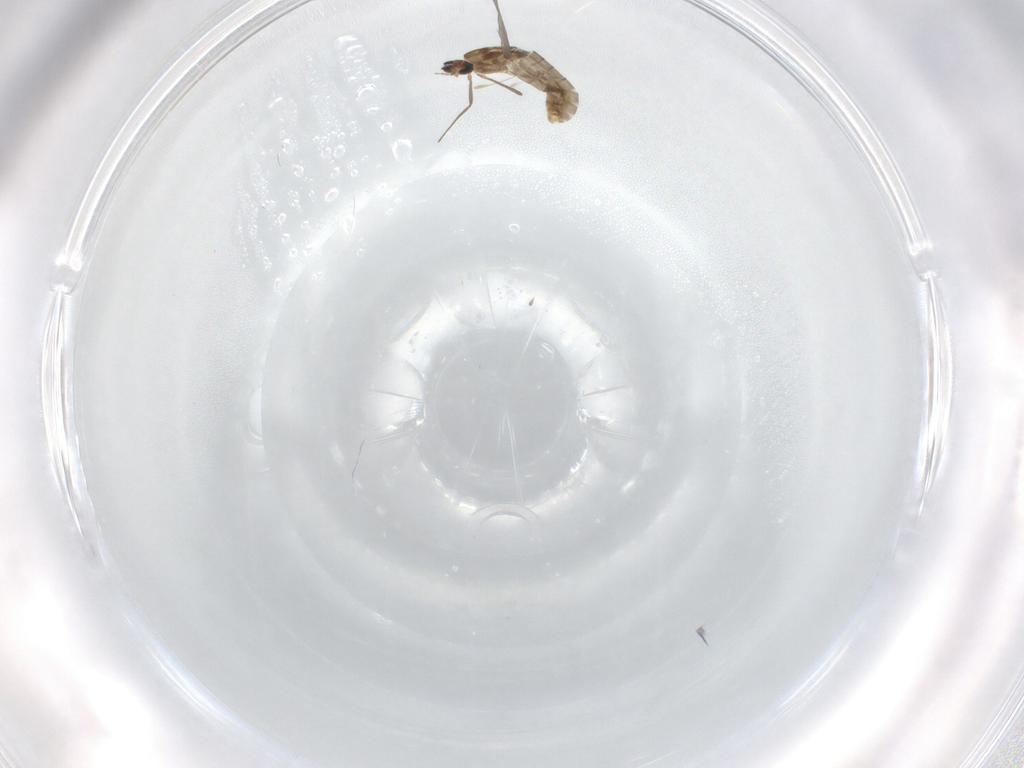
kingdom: Animalia
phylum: Arthropoda
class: Insecta
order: Diptera
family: Cecidomyiidae
